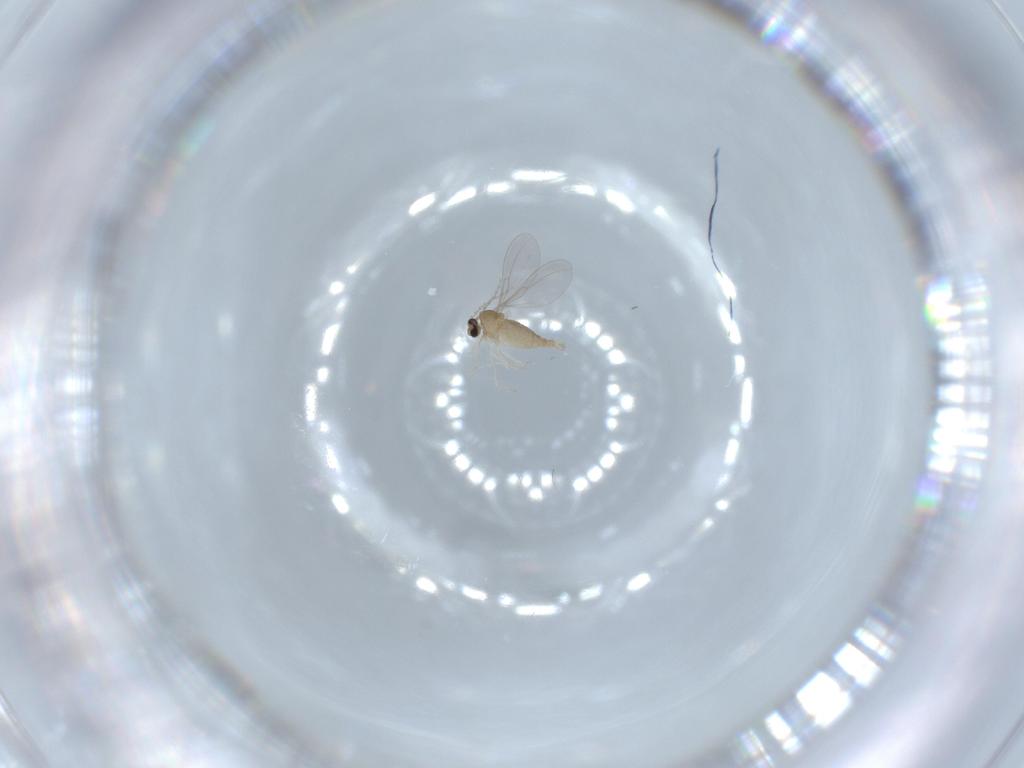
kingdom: Animalia
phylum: Arthropoda
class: Insecta
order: Diptera
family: Cecidomyiidae
